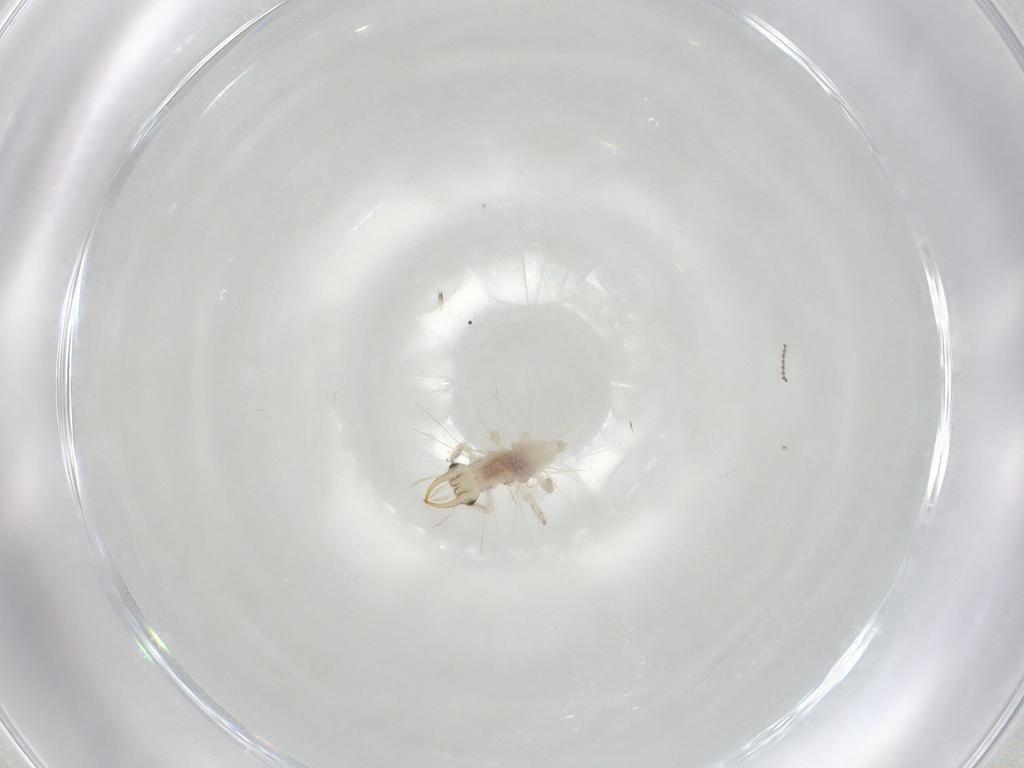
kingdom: Animalia
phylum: Arthropoda
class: Insecta
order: Neuroptera
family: Chrysopidae
